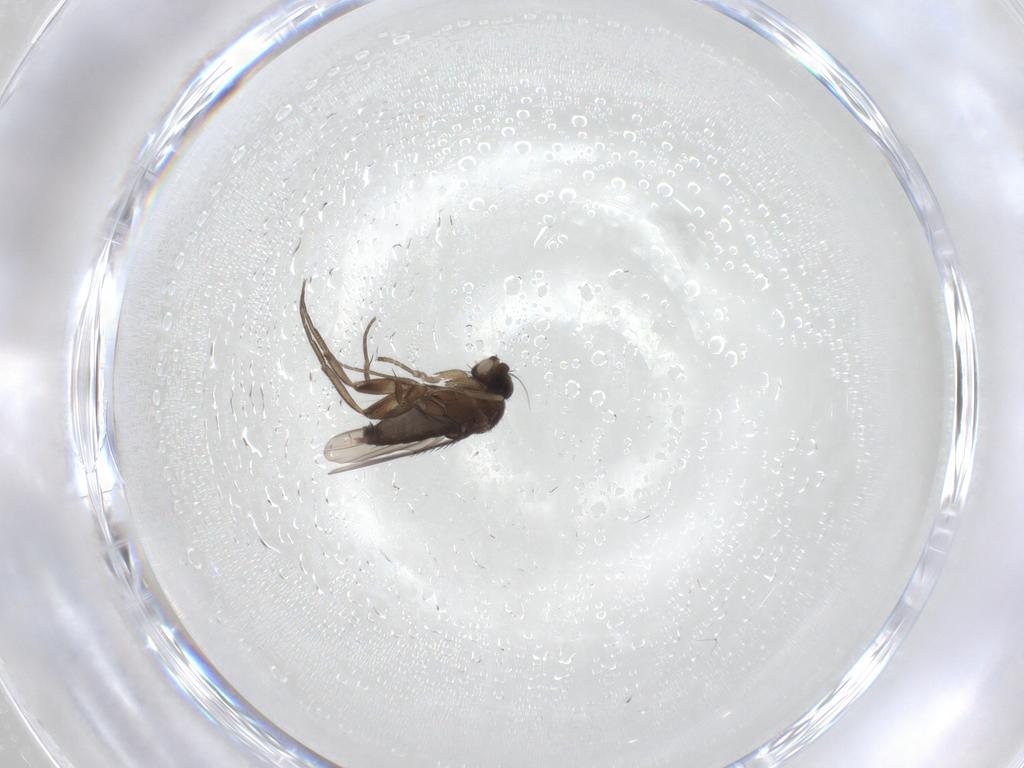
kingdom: Animalia
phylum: Arthropoda
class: Insecta
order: Diptera
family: Phoridae
